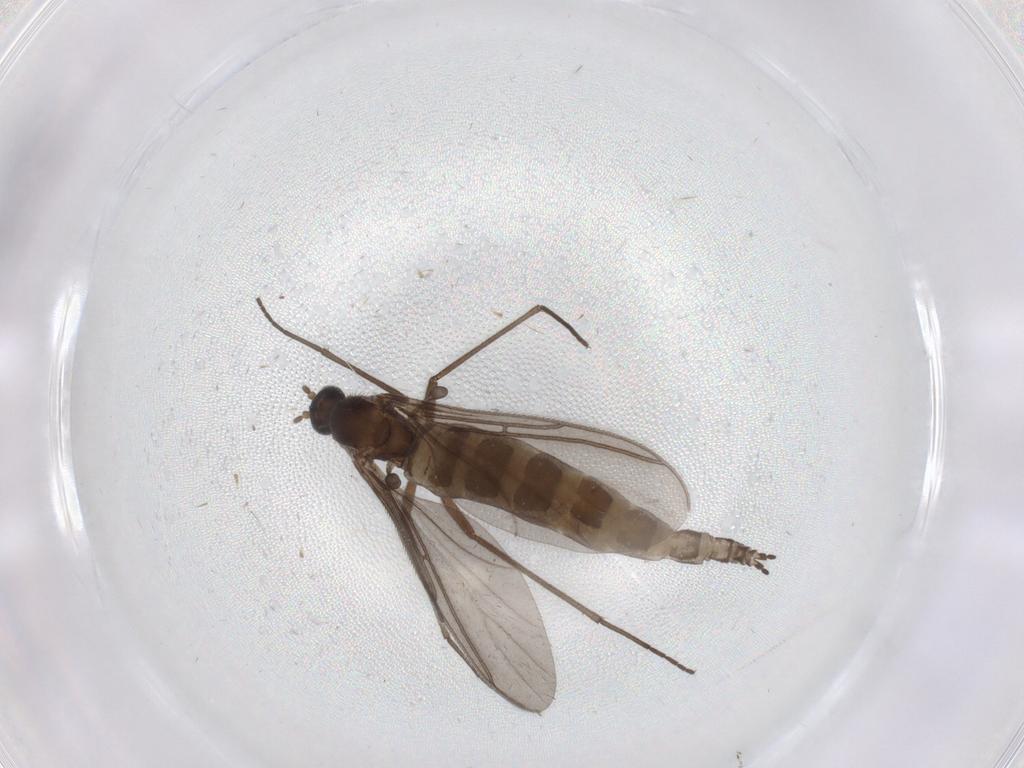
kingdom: Animalia
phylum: Arthropoda
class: Insecta
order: Diptera
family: Sciaridae
